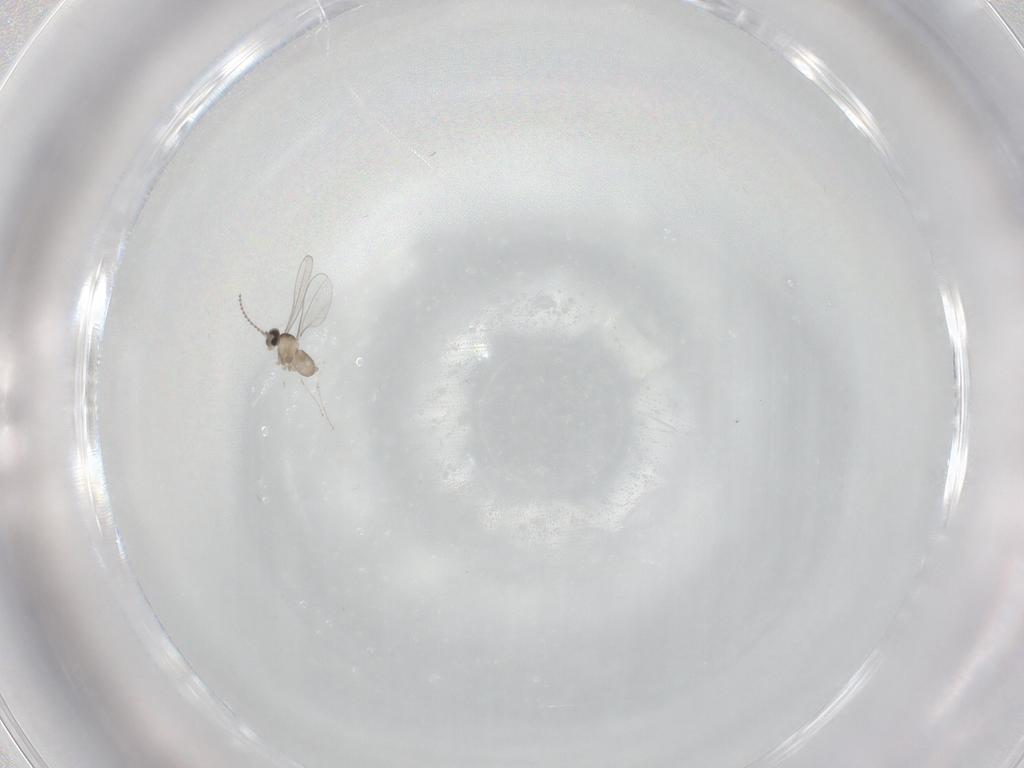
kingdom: Animalia
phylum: Arthropoda
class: Insecta
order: Diptera
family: Cecidomyiidae
